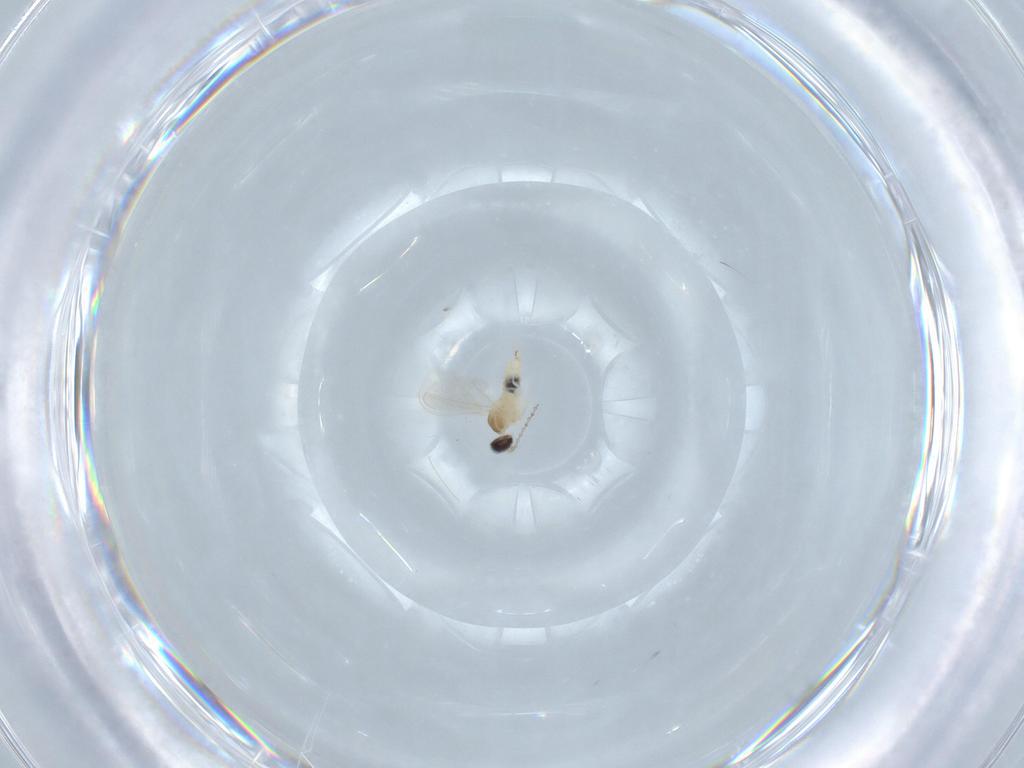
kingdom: Animalia
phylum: Arthropoda
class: Insecta
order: Diptera
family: Cecidomyiidae
